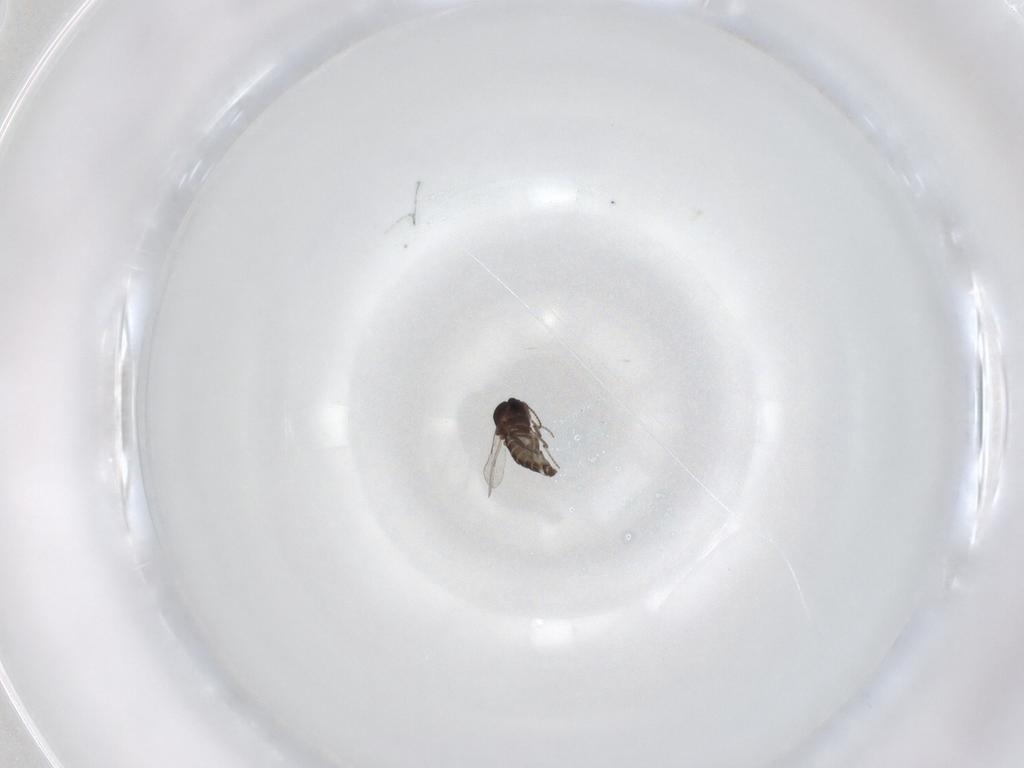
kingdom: Animalia
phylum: Arthropoda
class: Insecta
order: Diptera
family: Ceratopogonidae
